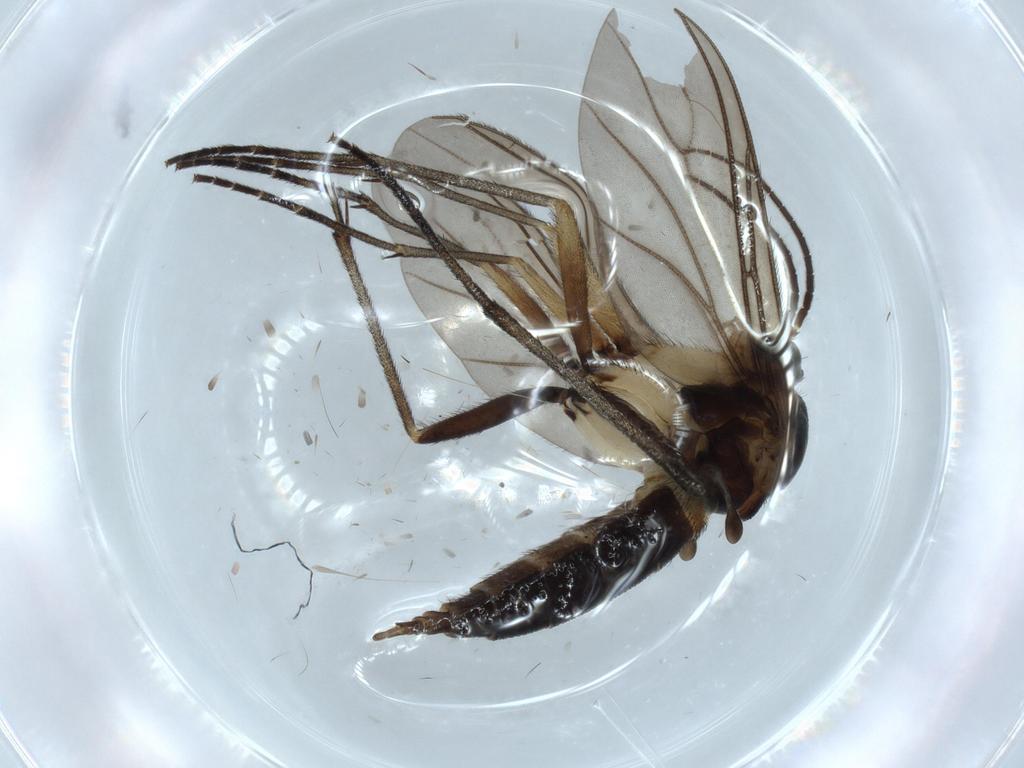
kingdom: Animalia
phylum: Arthropoda
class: Insecta
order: Diptera
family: Sciaridae
